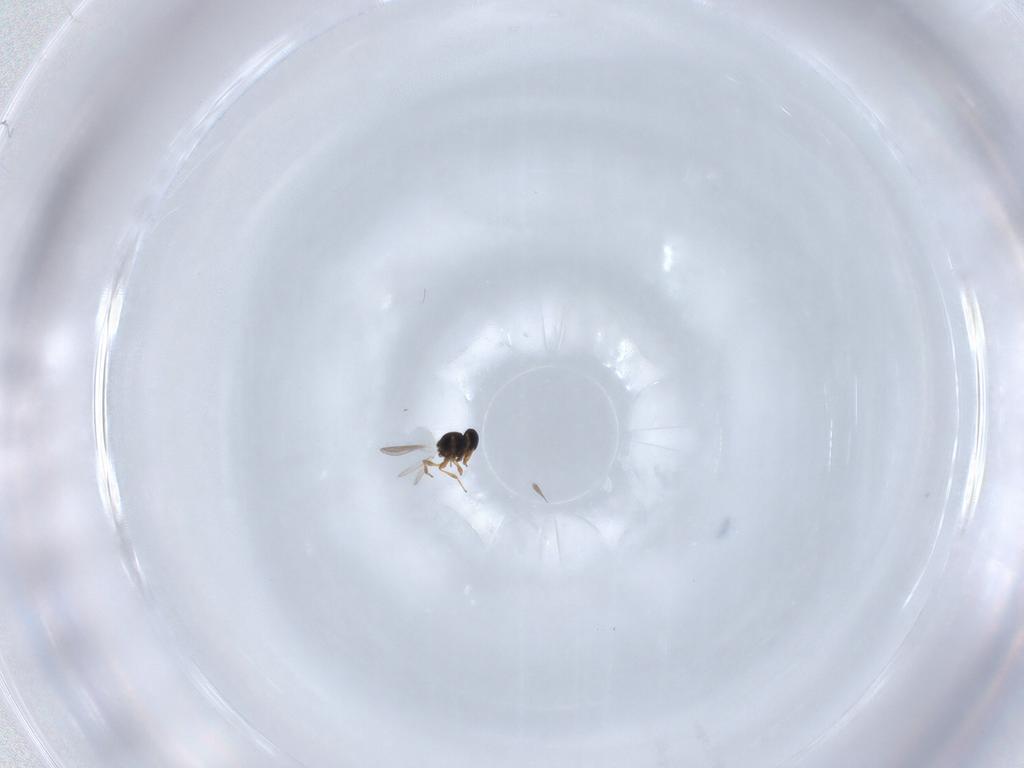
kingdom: Animalia
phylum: Arthropoda
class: Insecta
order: Hymenoptera
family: Platygastridae
